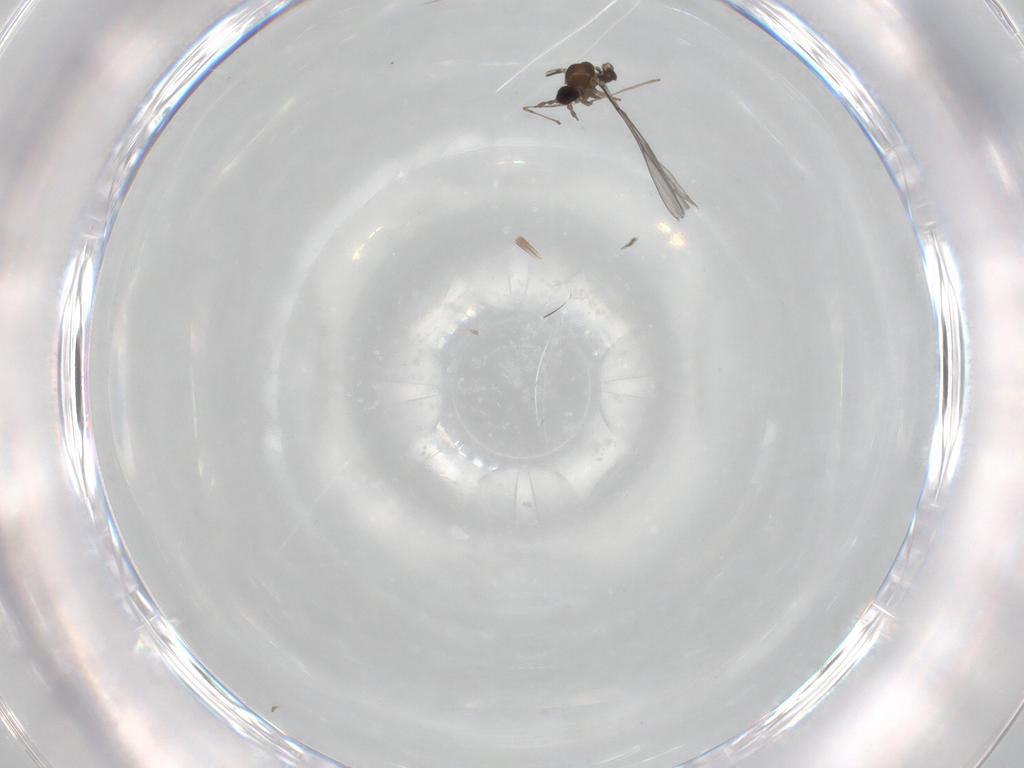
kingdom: Animalia
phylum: Arthropoda
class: Insecta
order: Diptera
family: Cecidomyiidae
